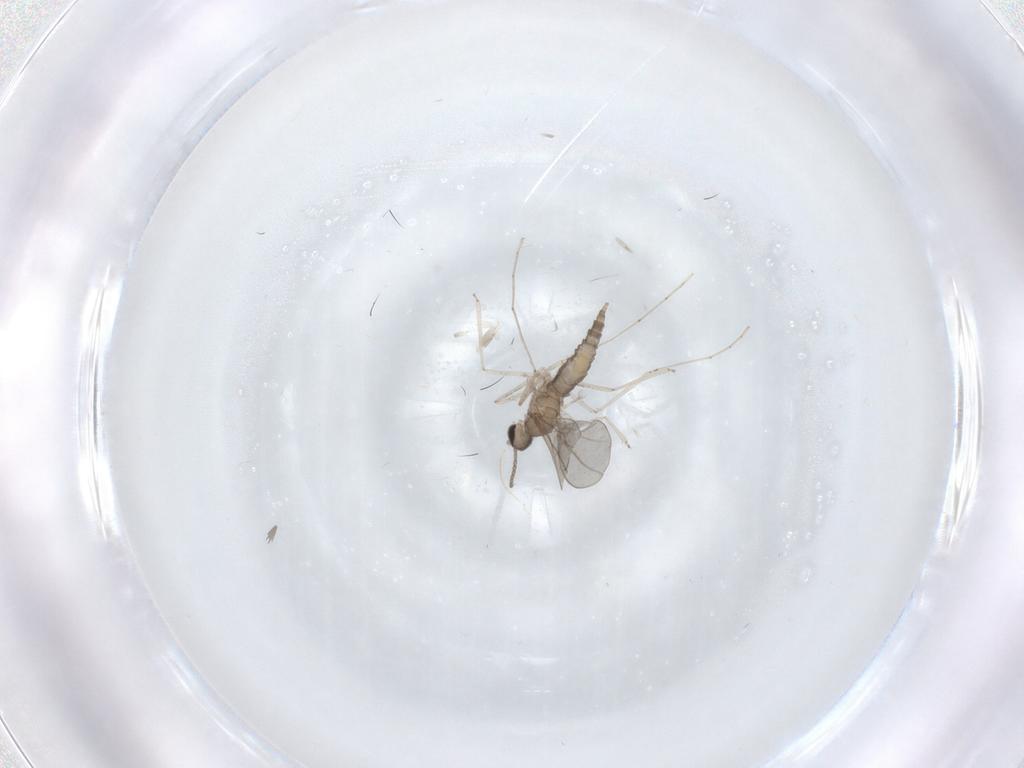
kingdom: Animalia
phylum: Arthropoda
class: Insecta
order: Diptera
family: Cecidomyiidae
